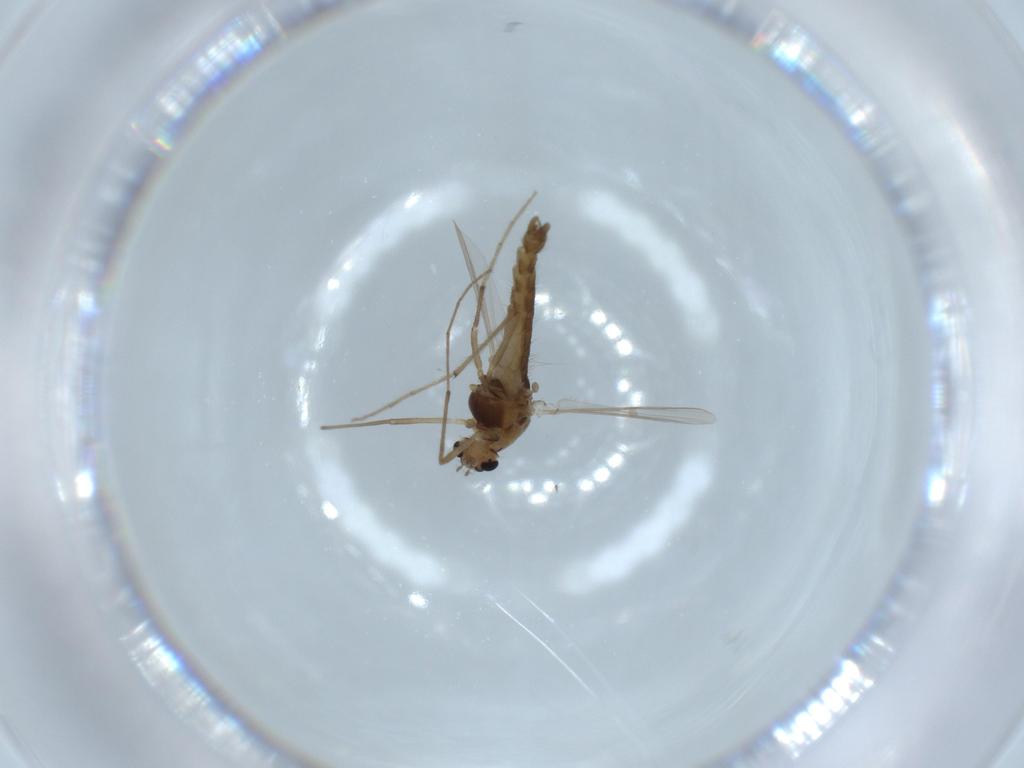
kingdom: Animalia
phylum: Arthropoda
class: Insecta
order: Diptera
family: Chironomidae
